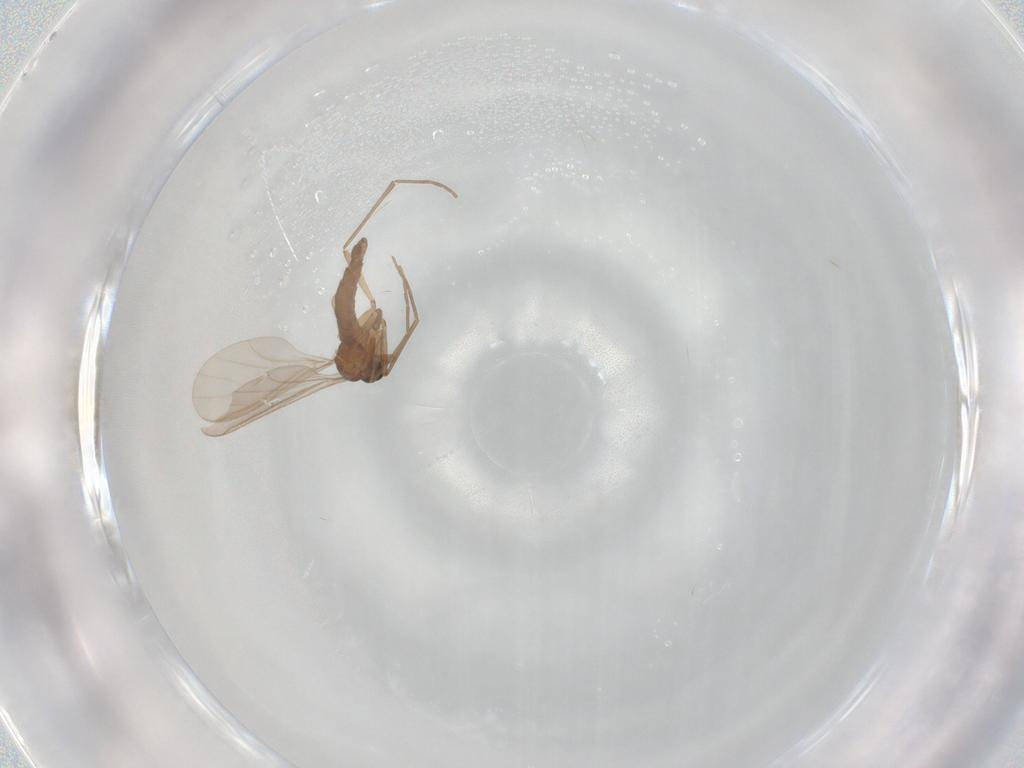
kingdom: Animalia
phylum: Arthropoda
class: Insecta
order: Diptera
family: Sciaridae
